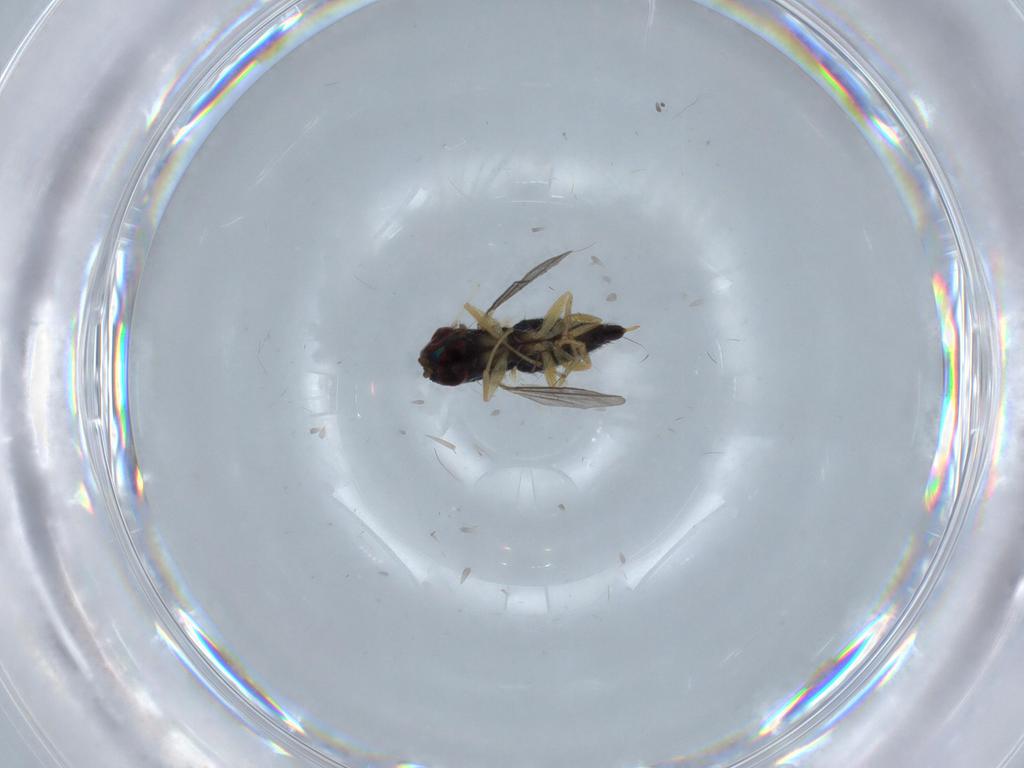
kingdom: Animalia
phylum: Arthropoda
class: Insecta
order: Diptera
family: Dolichopodidae
